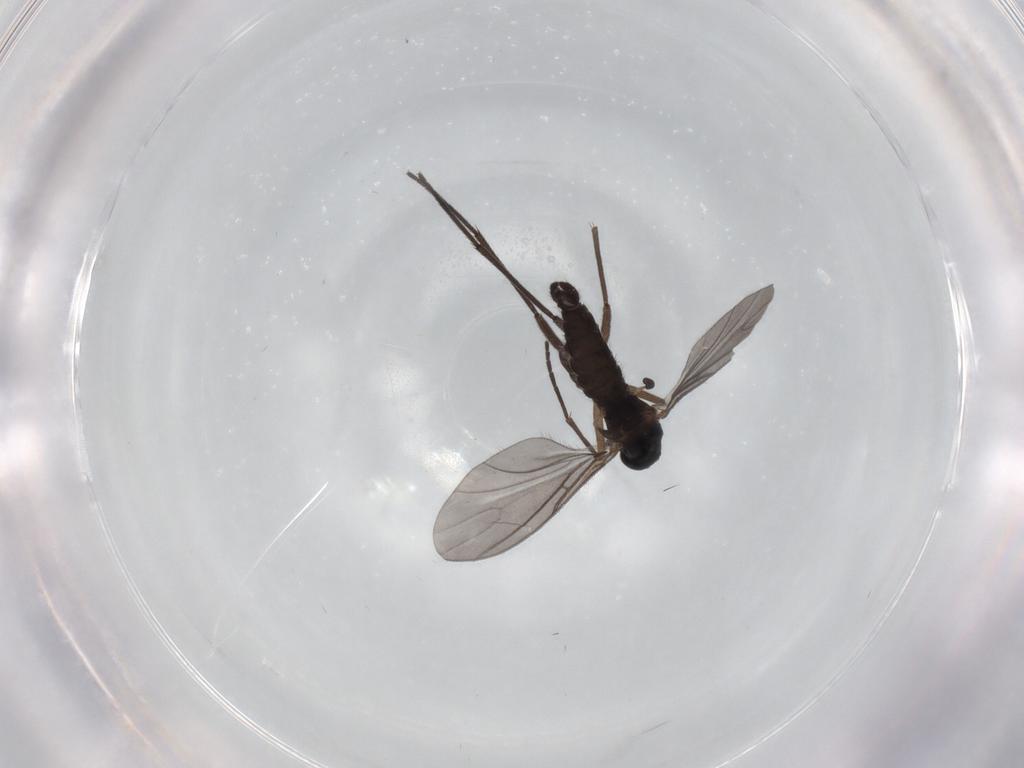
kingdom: Animalia
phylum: Arthropoda
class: Insecta
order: Diptera
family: Sciaridae
